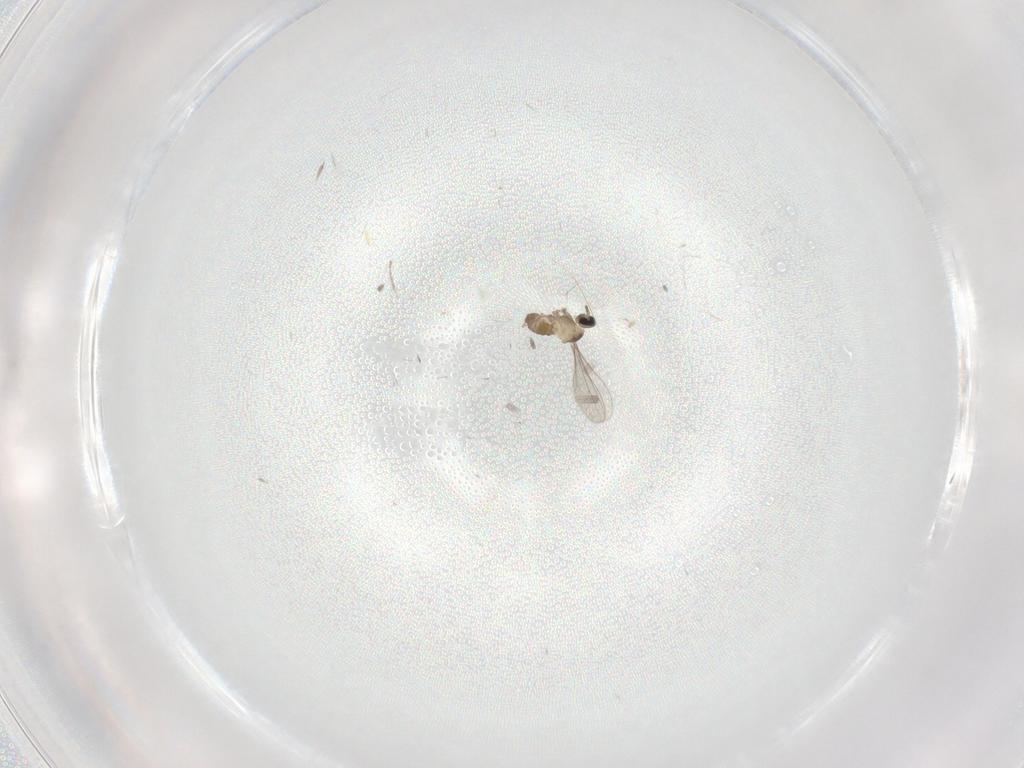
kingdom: Animalia
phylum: Arthropoda
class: Insecta
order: Diptera
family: Cecidomyiidae
